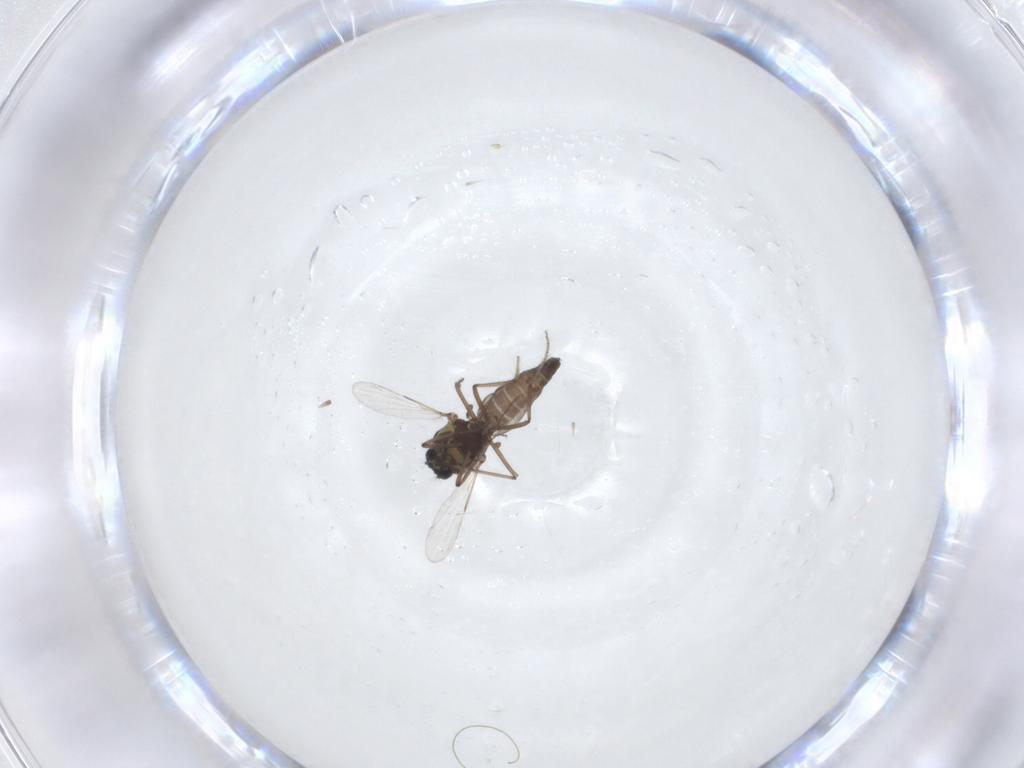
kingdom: Animalia
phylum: Arthropoda
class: Insecta
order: Diptera
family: Ceratopogonidae
